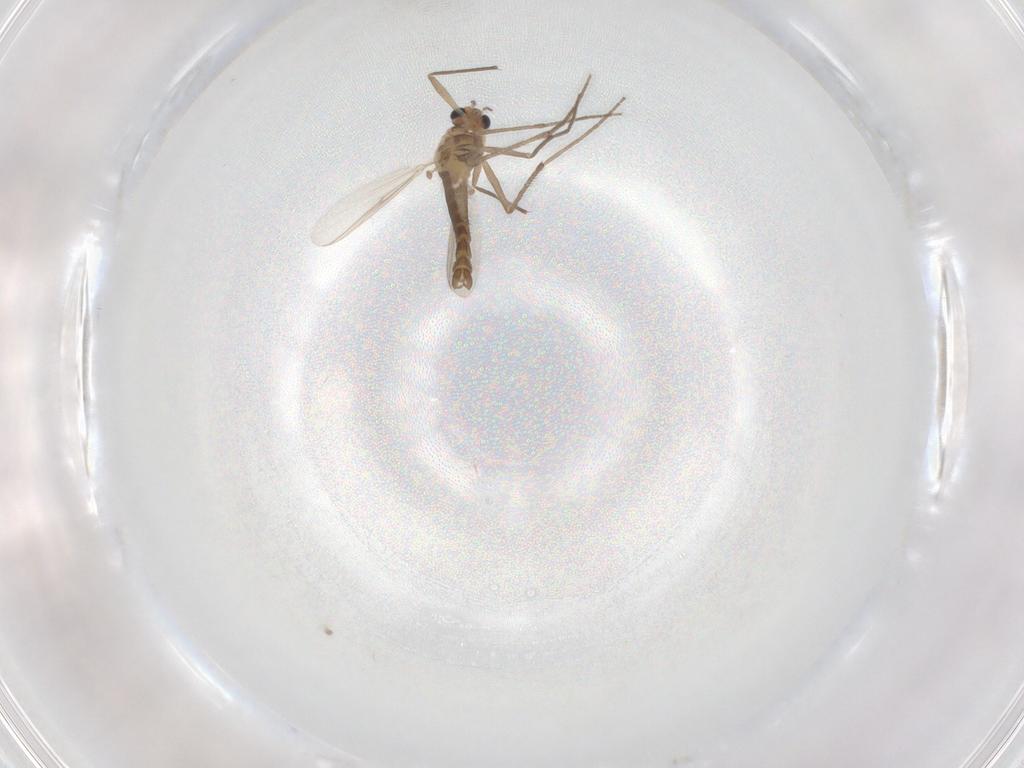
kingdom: Animalia
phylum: Arthropoda
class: Insecta
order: Diptera
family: Chironomidae
